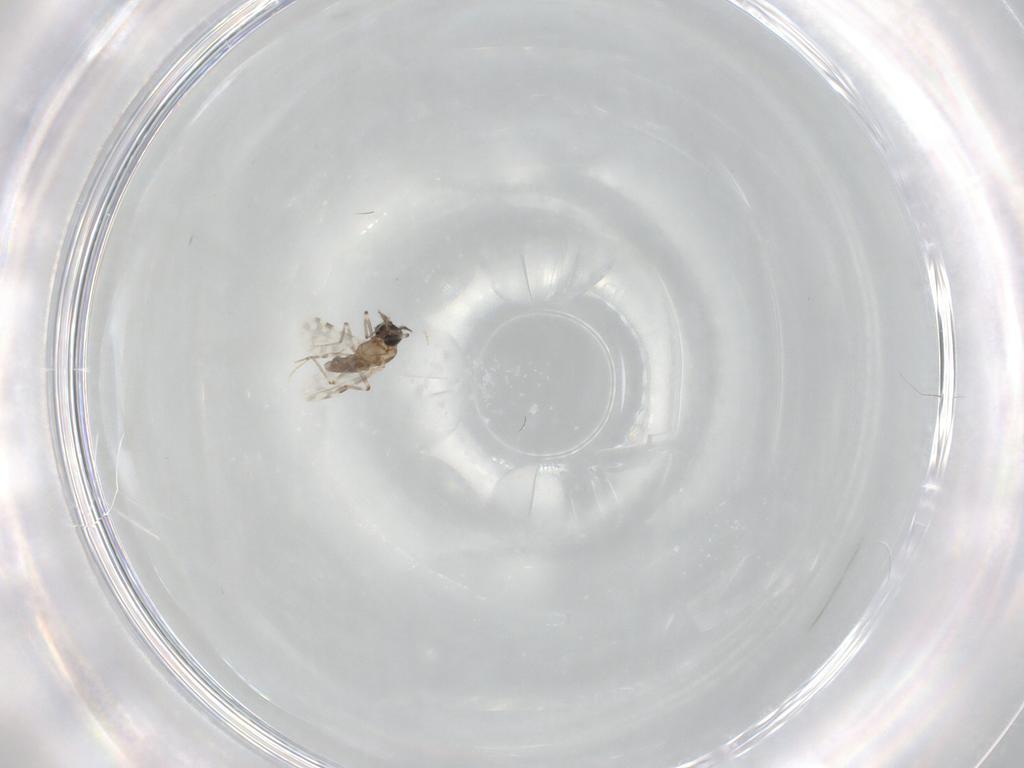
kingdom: Animalia
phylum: Arthropoda
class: Insecta
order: Diptera
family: Ceratopogonidae
